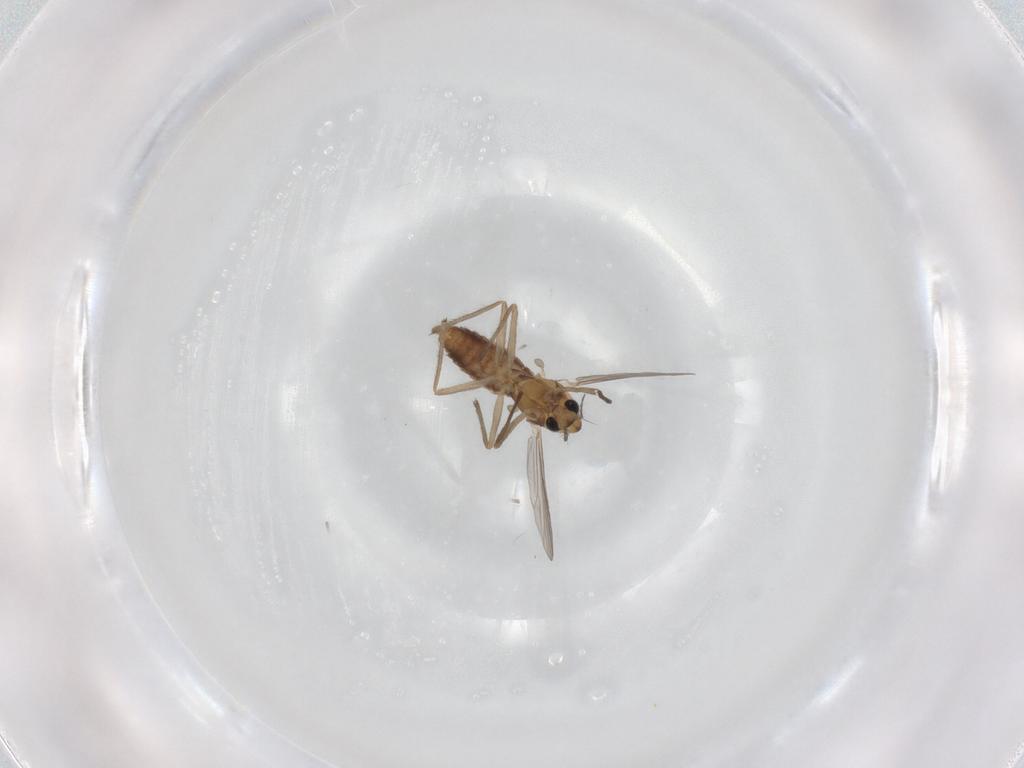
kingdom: Animalia
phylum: Arthropoda
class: Insecta
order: Diptera
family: Chironomidae
